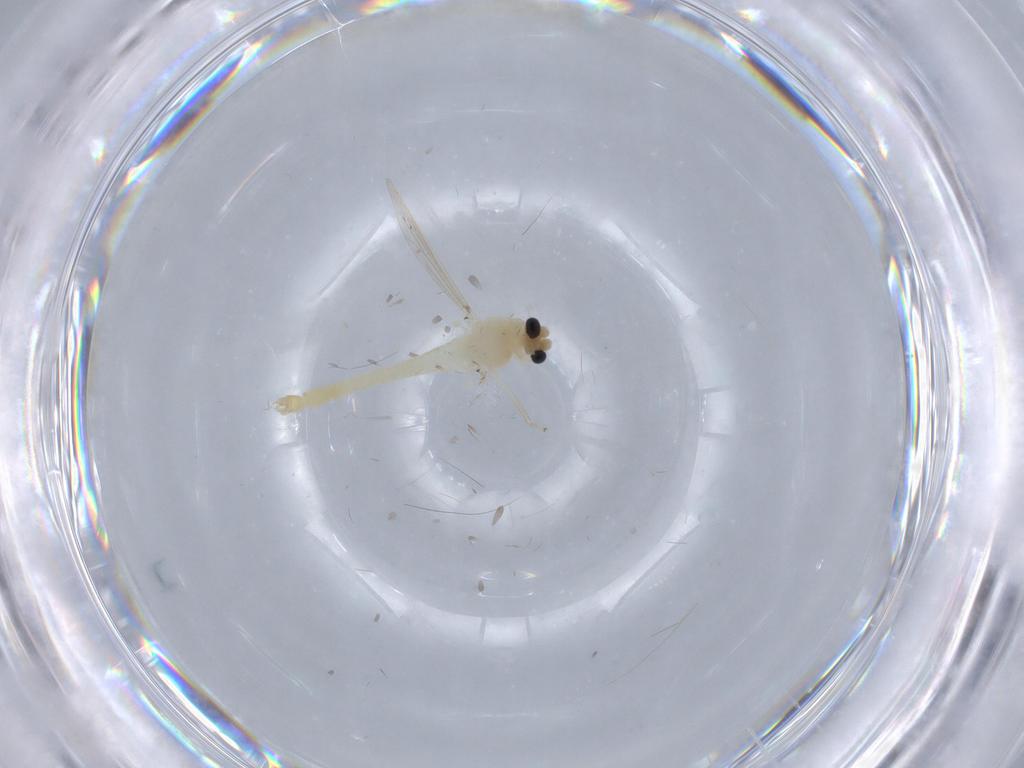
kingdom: Animalia
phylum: Arthropoda
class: Insecta
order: Diptera
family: Chironomidae
